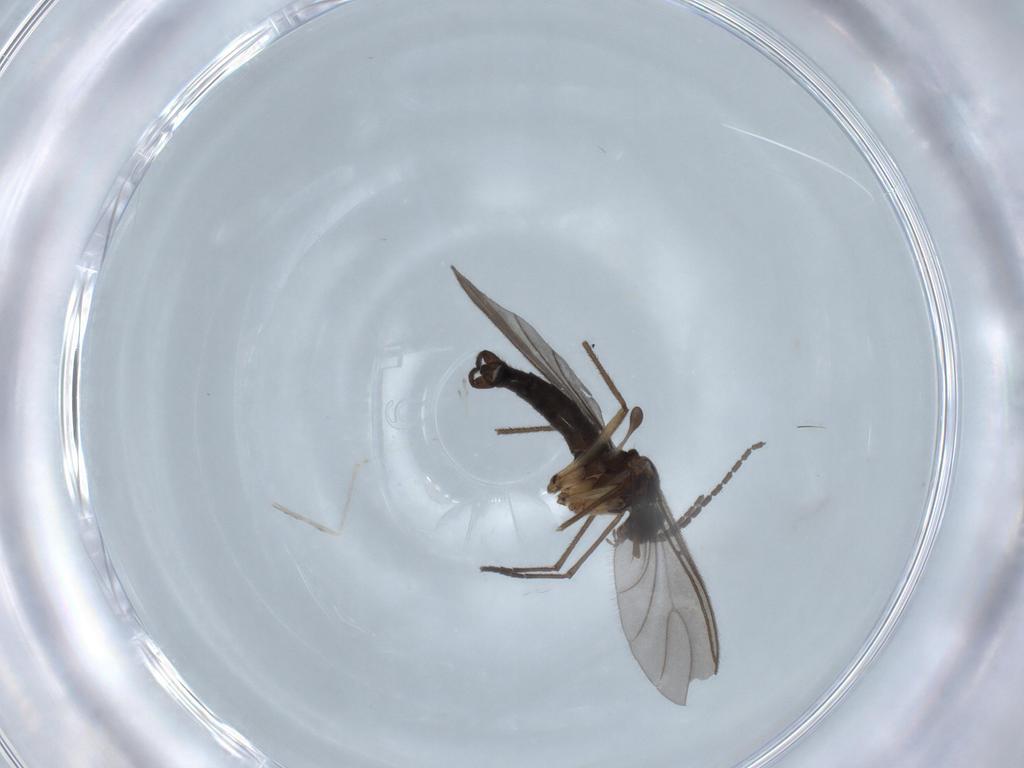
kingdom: Animalia
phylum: Arthropoda
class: Insecta
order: Diptera
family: Sciaridae
